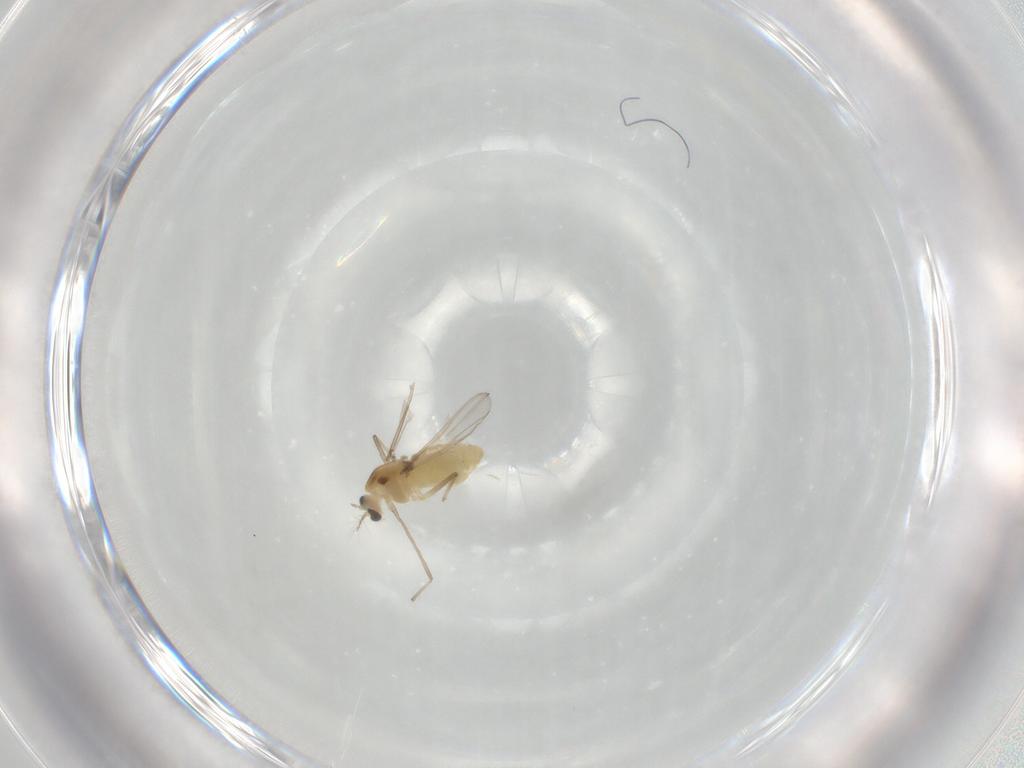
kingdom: Animalia
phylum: Arthropoda
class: Insecta
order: Diptera
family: Chironomidae
